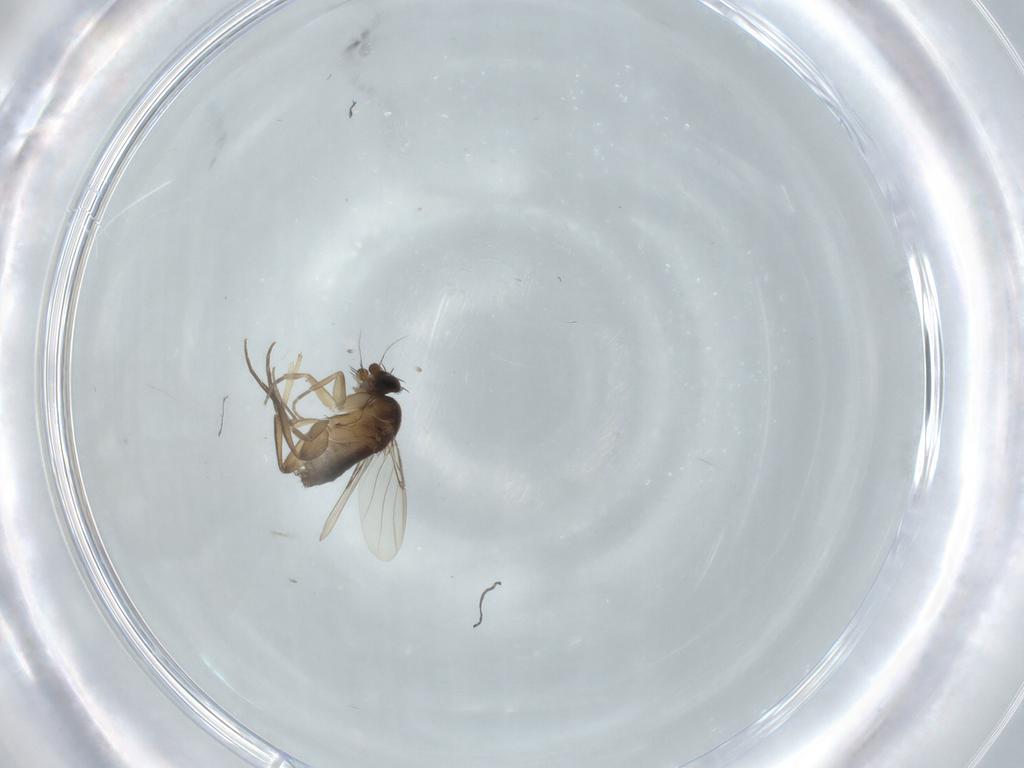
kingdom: Animalia
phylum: Arthropoda
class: Insecta
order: Diptera
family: Phoridae
